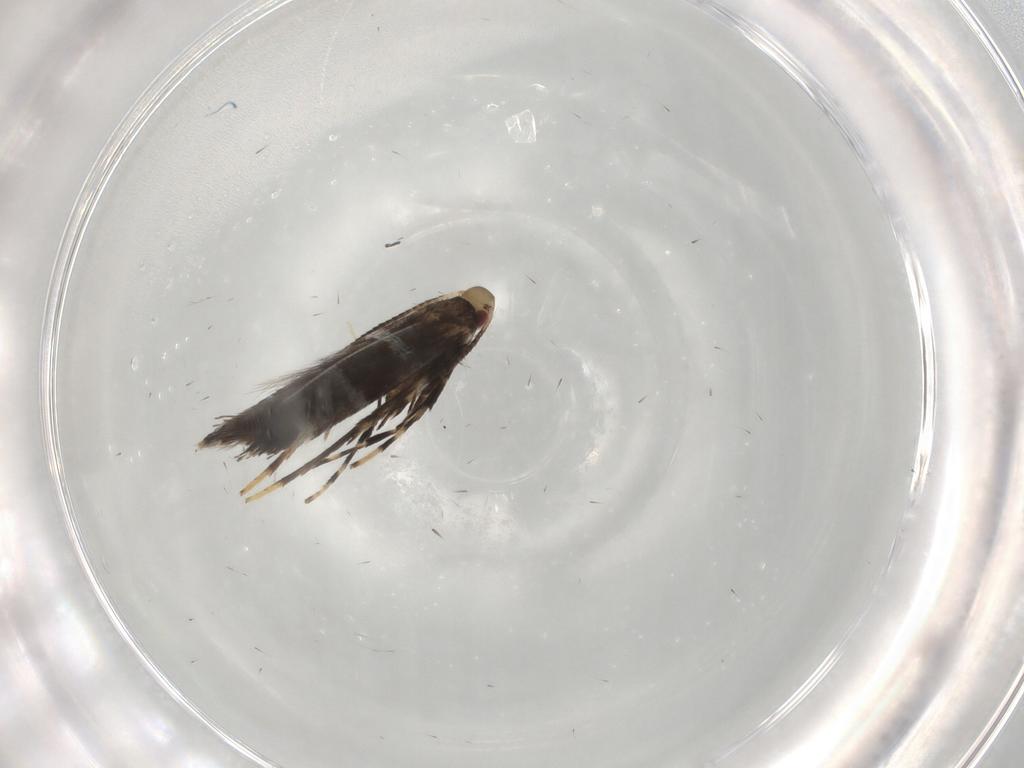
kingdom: Animalia
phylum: Arthropoda
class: Insecta
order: Lepidoptera
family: Gracillariidae
